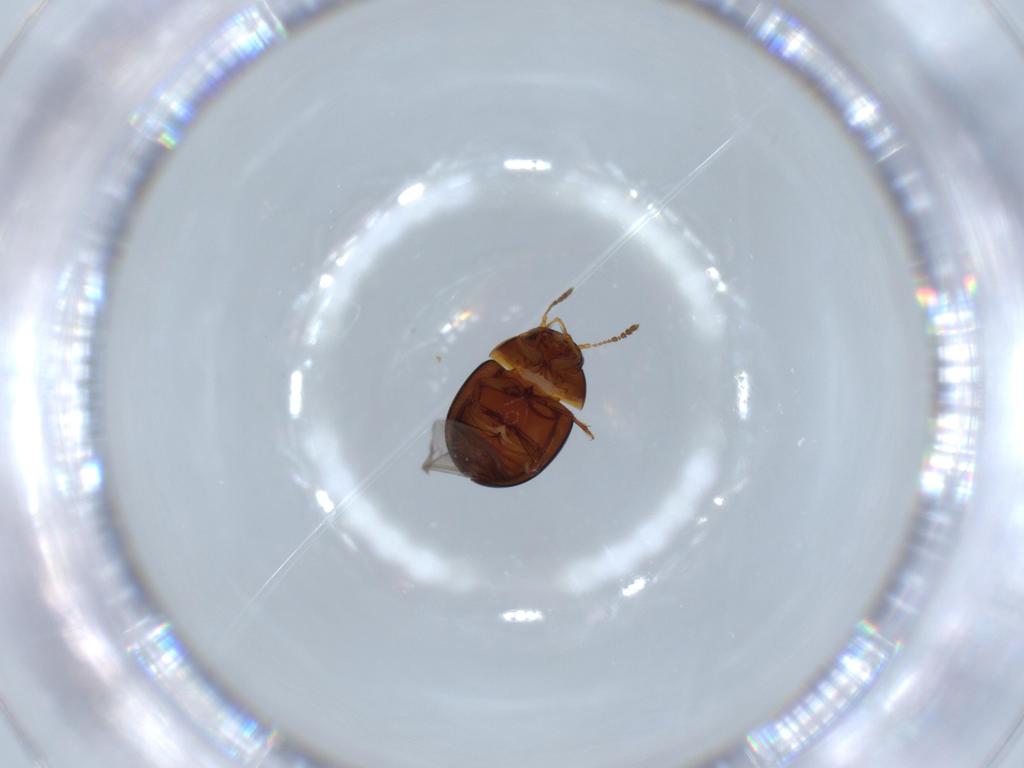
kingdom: Animalia
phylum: Arthropoda
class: Insecta
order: Coleoptera
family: Leiodidae
